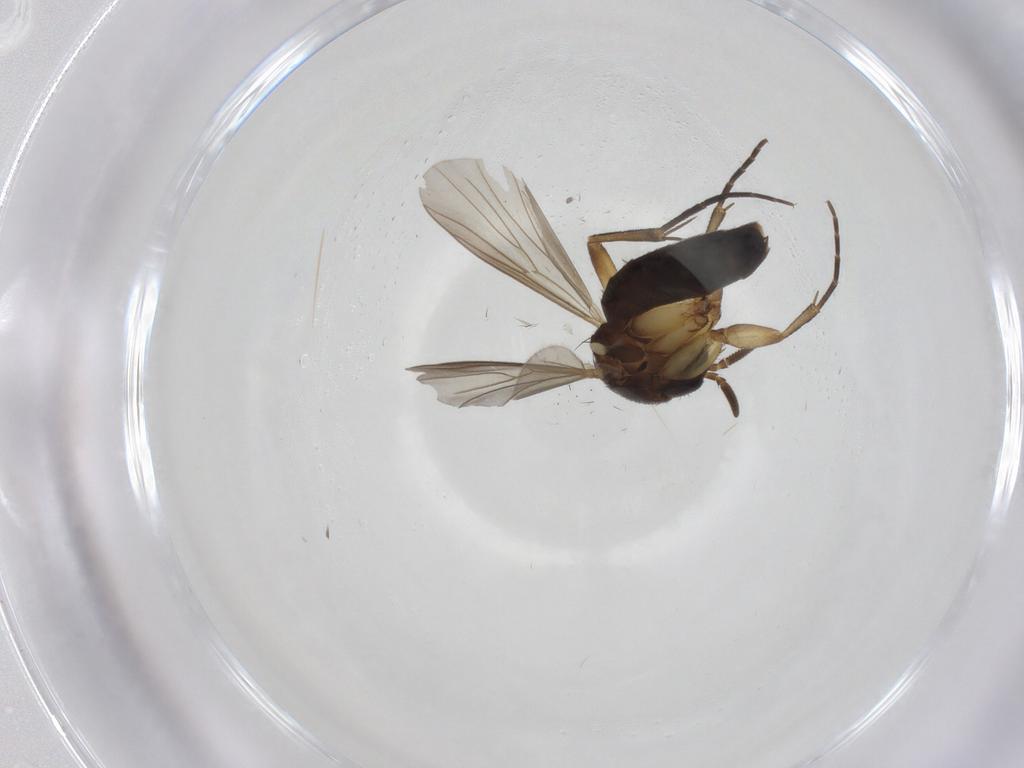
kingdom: Animalia
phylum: Arthropoda
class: Insecta
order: Diptera
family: Mycetophilidae
